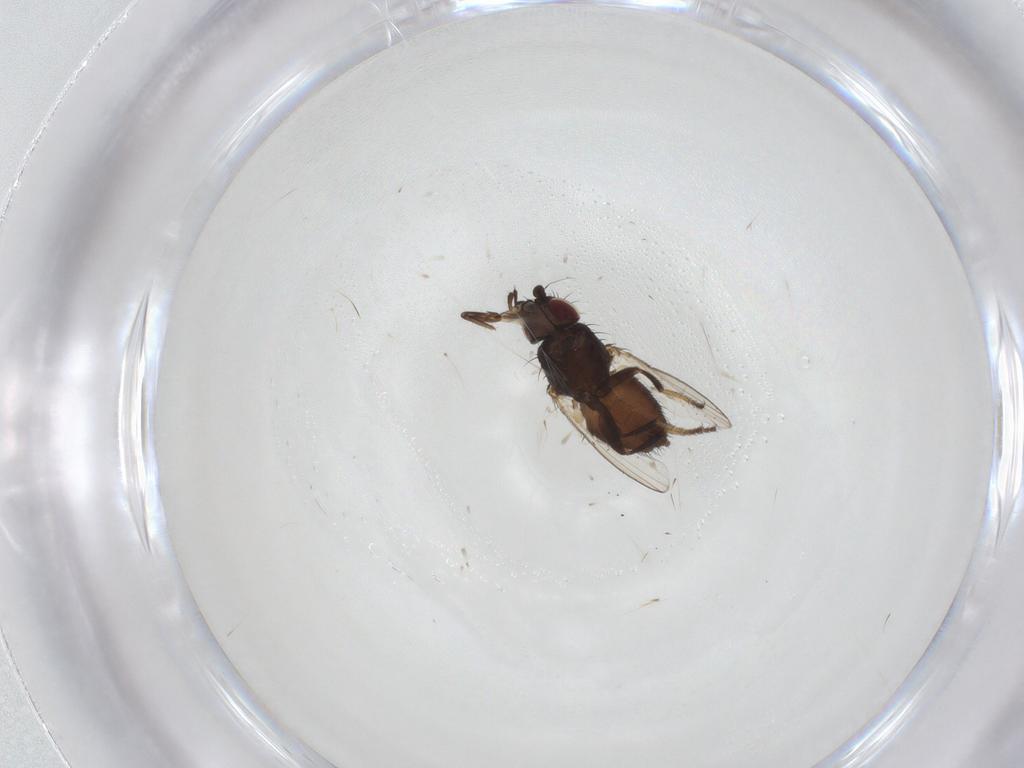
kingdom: Animalia
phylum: Arthropoda
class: Insecta
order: Diptera
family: Milichiidae
